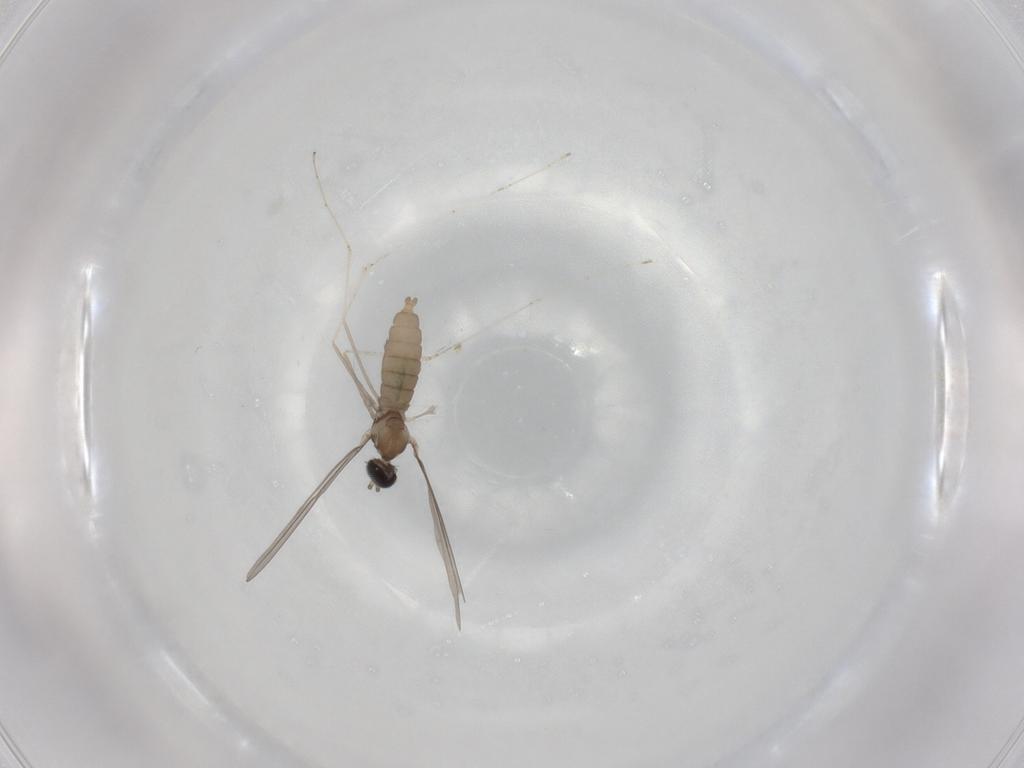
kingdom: Animalia
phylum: Arthropoda
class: Insecta
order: Diptera
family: Cecidomyiidae
